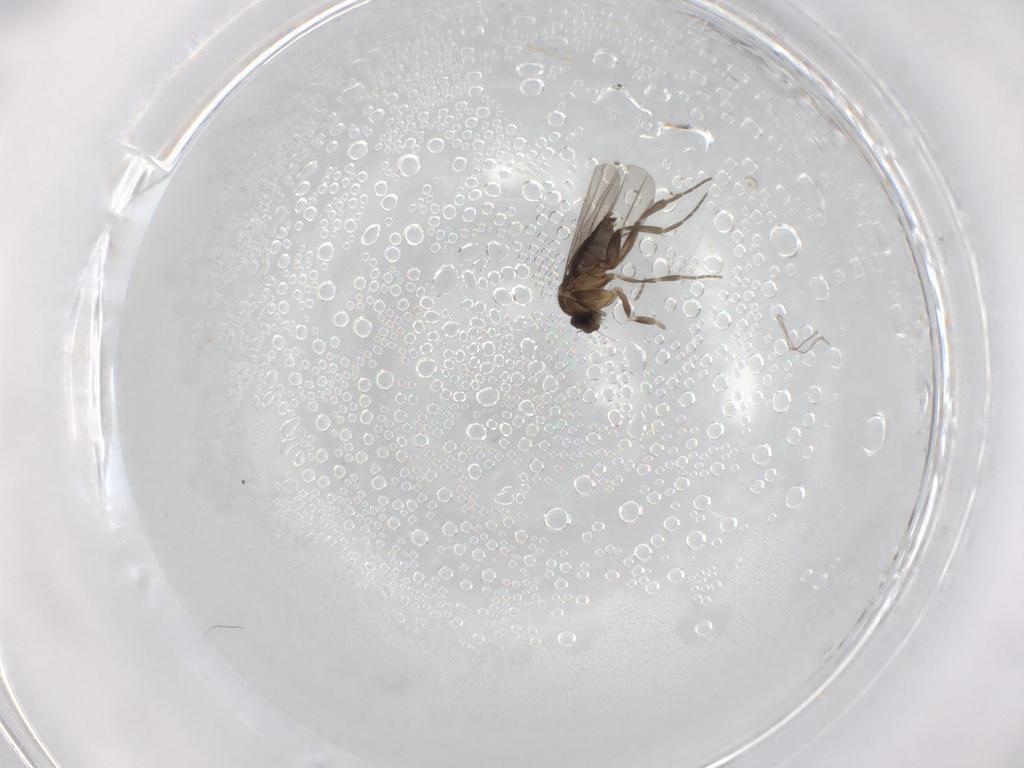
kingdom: Animalia
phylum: Arthropoda
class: Insecta
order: Diptera
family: Phoridae
